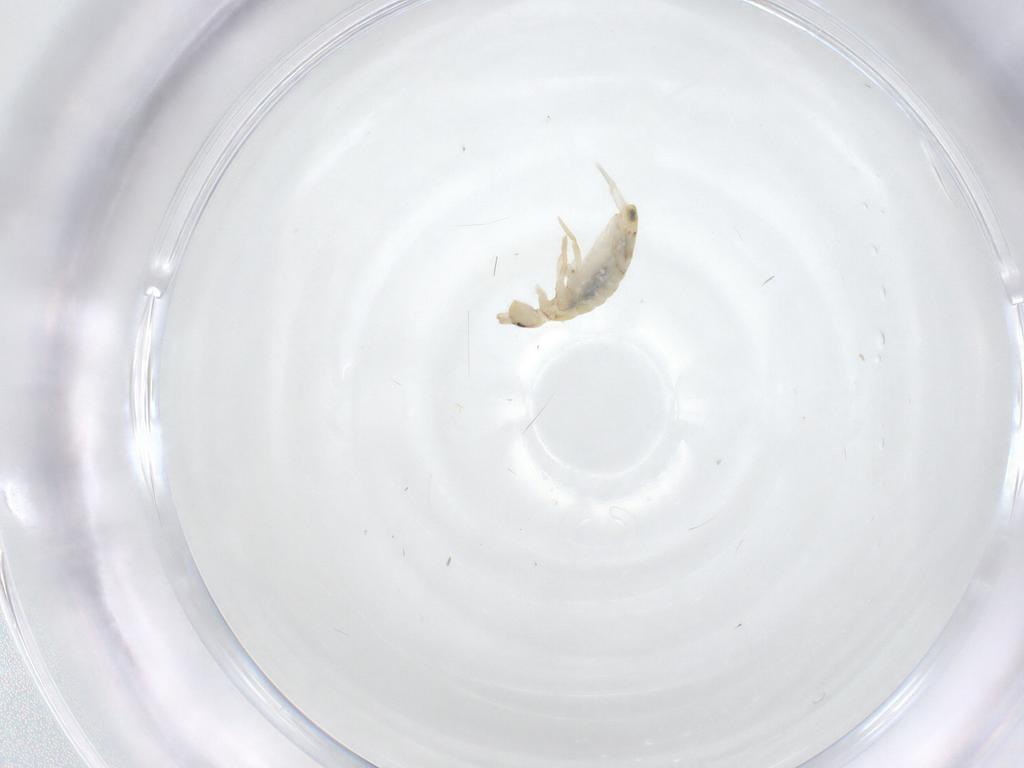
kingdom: Animalia
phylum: Arthropoda
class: Collembola
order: Entomobryomorpha
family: Entomobryidae
